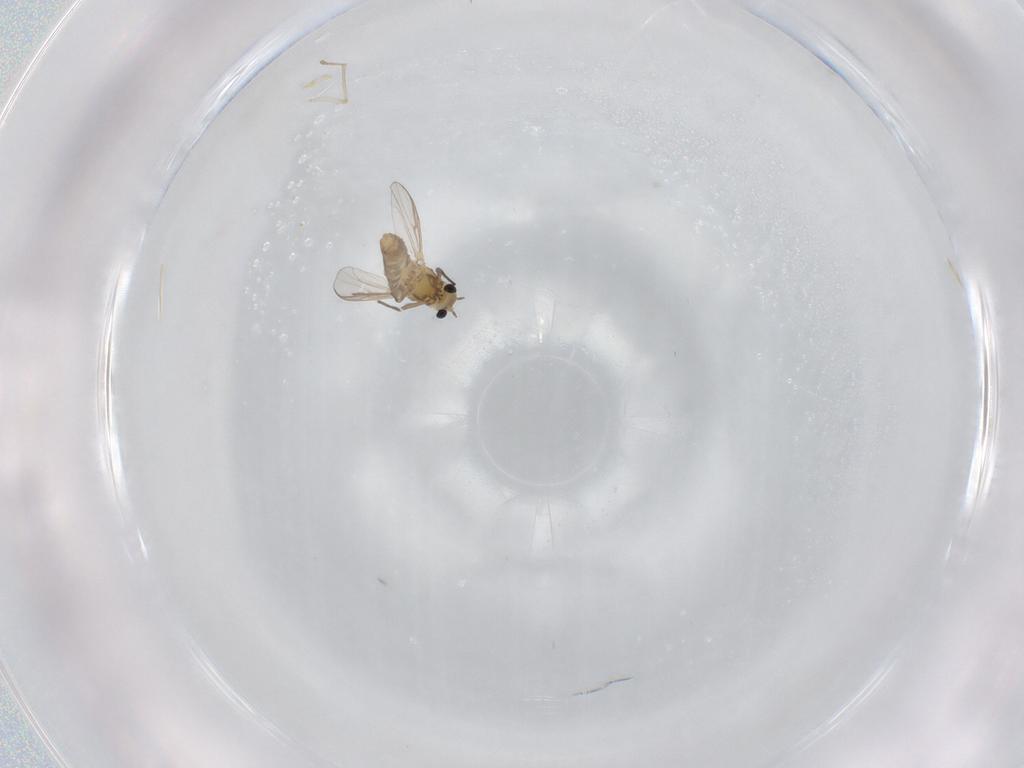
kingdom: Animalia
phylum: Arthropoda
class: Insecta
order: Diptera
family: Chironomidae
